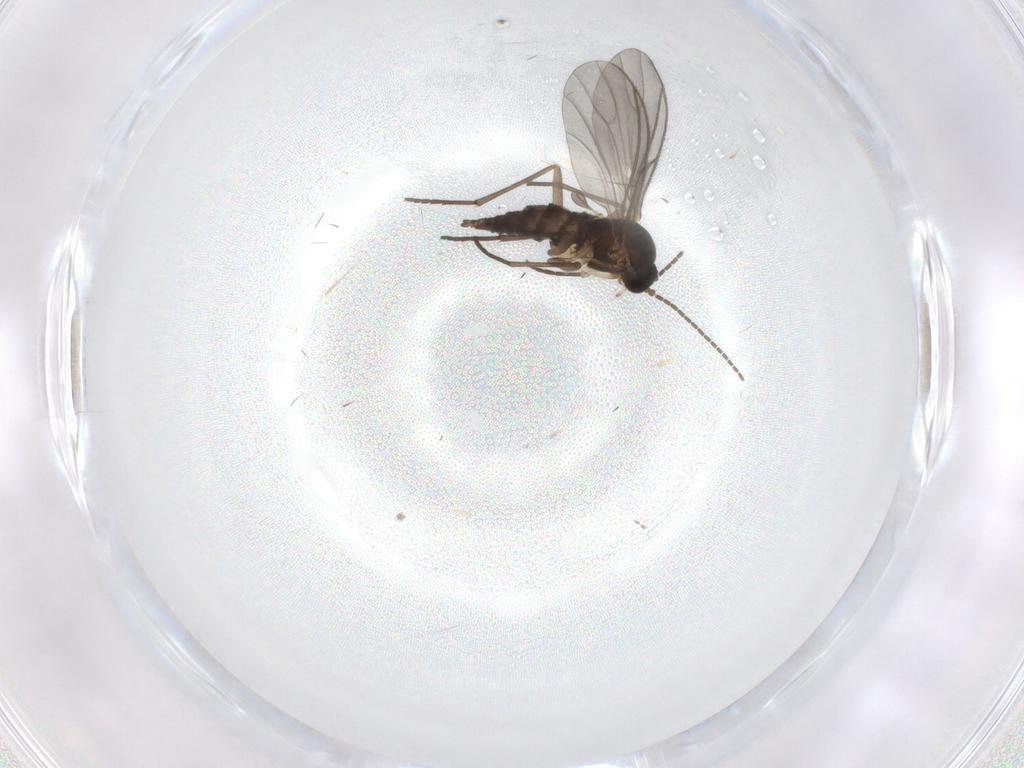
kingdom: Animalia
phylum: Arthropoda
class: Insecta
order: Diptera
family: Sciaridae
